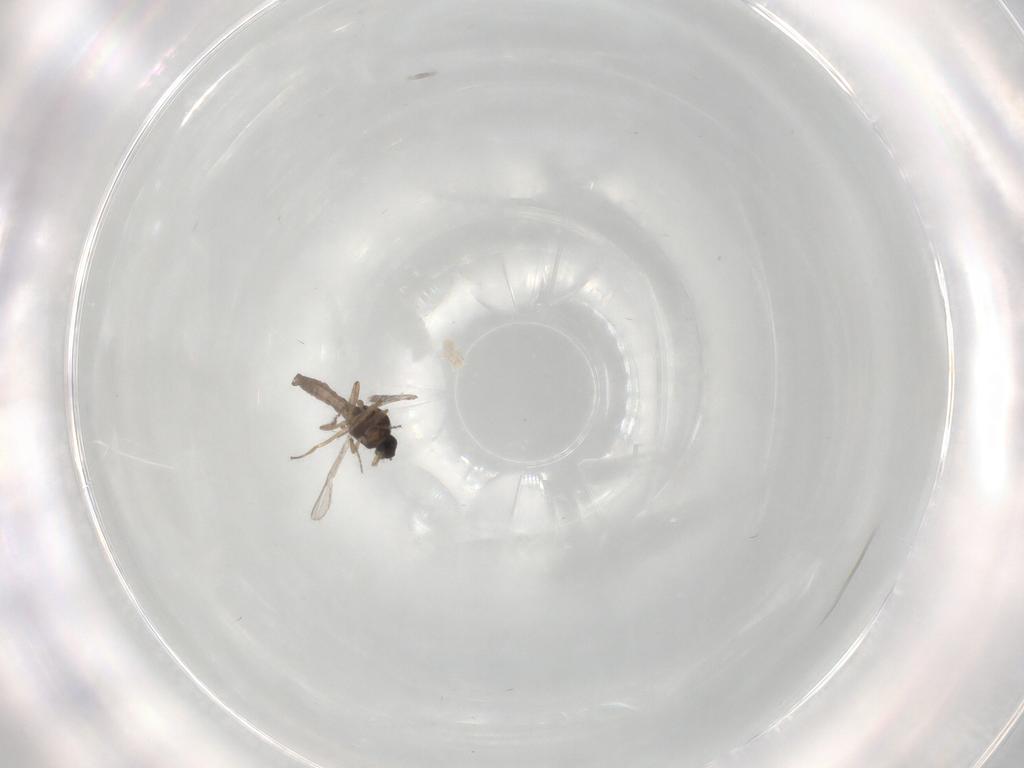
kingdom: Animalia
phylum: Arthropoda
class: Insecta
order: Diptera
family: Ceratopogonidae
